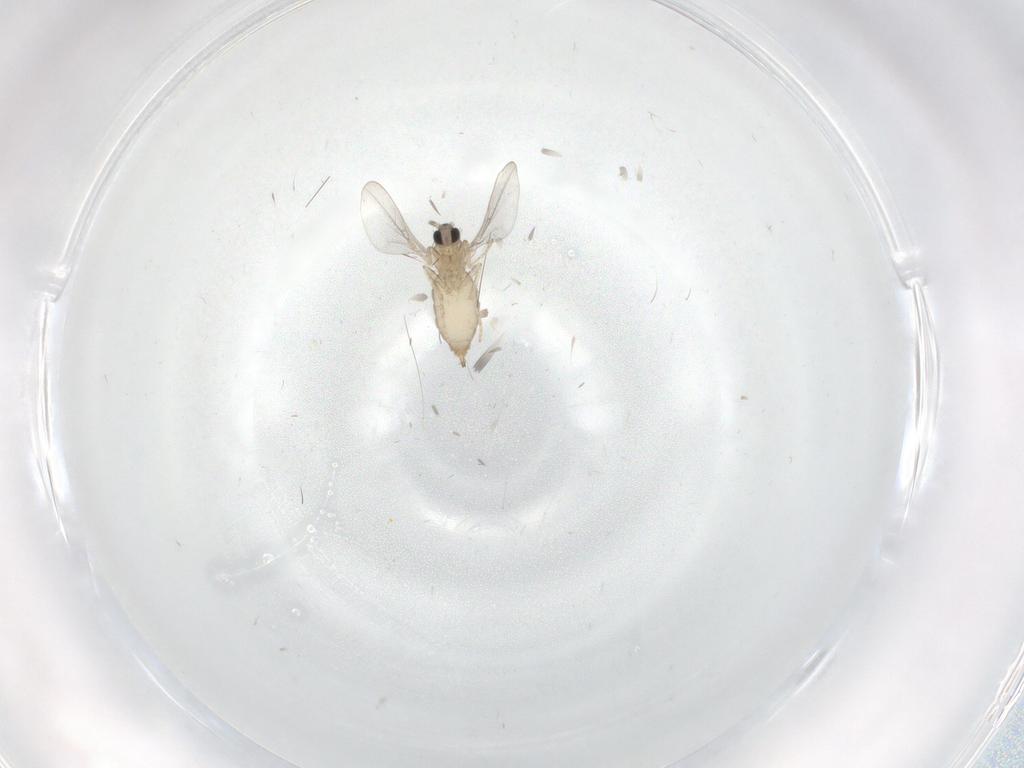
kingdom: Animalia
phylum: Arthropoda
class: Insecta
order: Diptera
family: Cecidomyiidae
